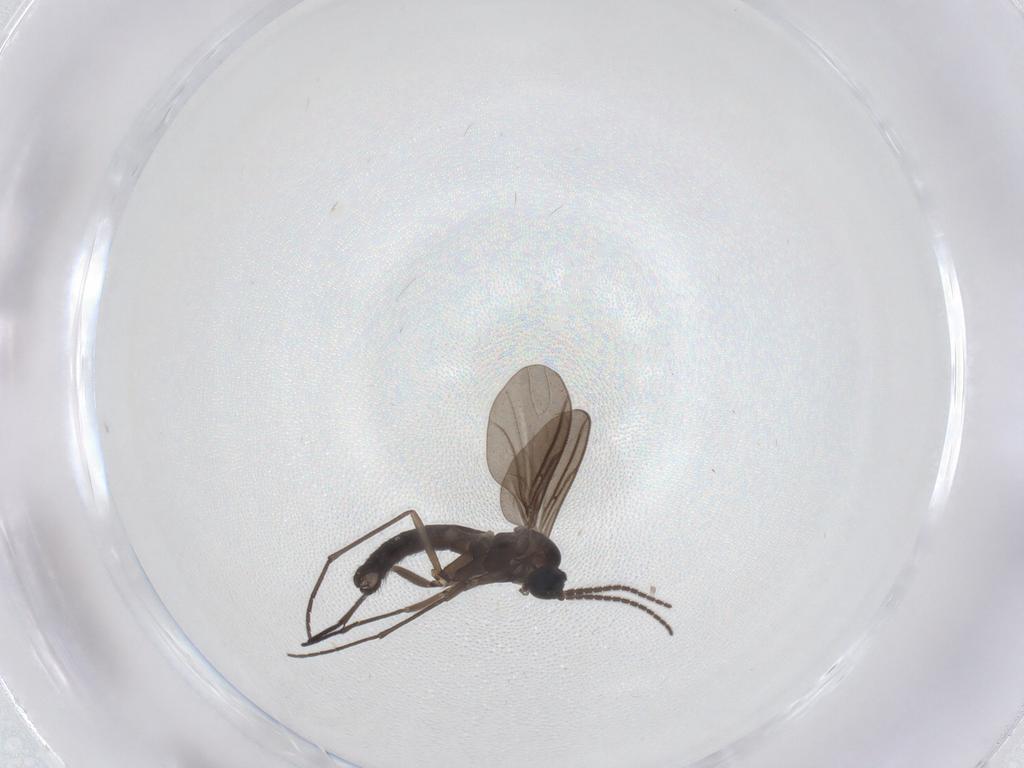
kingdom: Animalia
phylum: Arthropoda
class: Insecta
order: Diptera
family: Sciaridae
